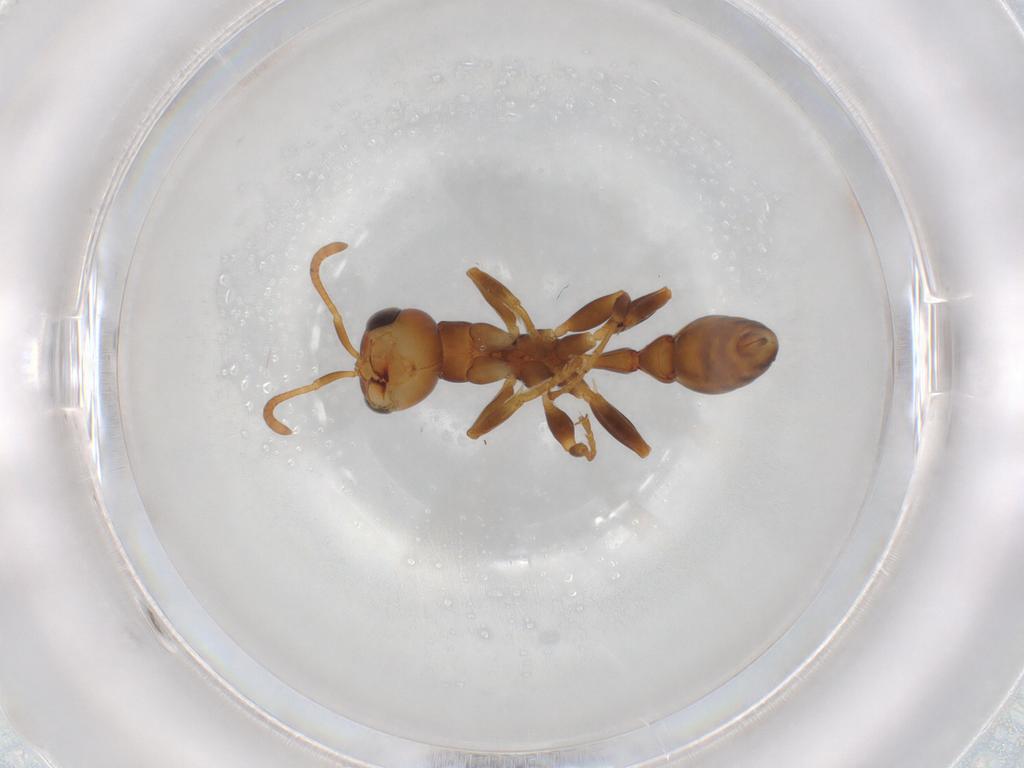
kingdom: Animalia
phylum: Arthropoda
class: Insecta
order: Hymenoptera
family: Formicidae
